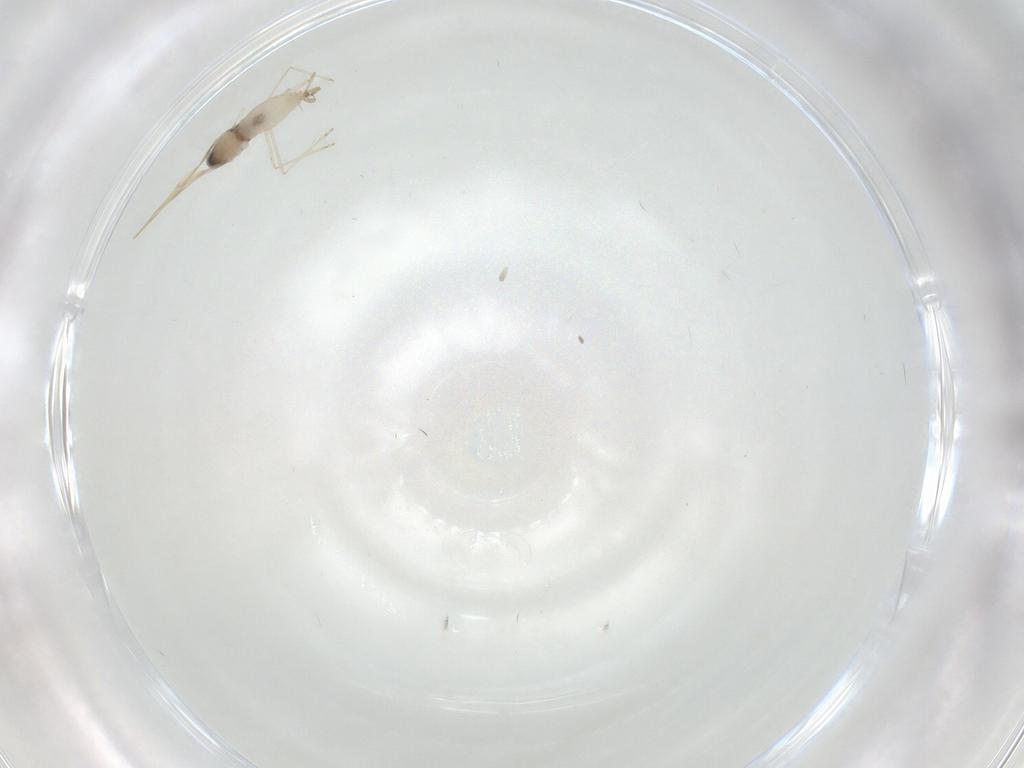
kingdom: Animalia
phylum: Arthropoda
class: Insecta
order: Diptera
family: Cecidomyiidae
